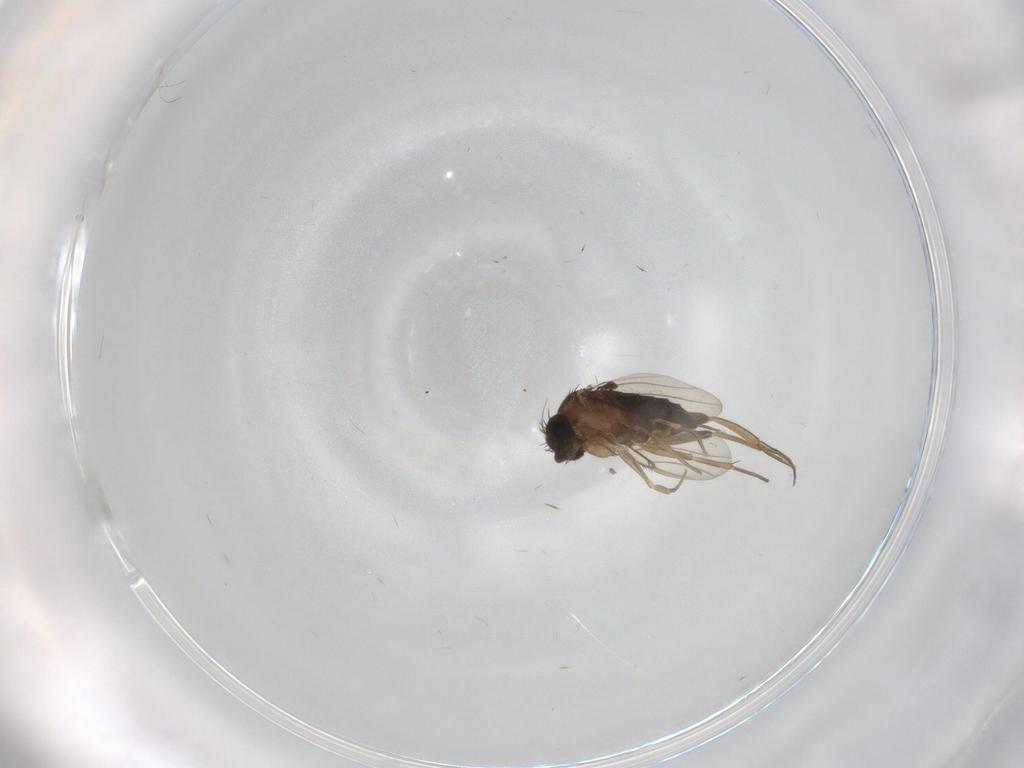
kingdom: Animalia
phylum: Arthropoda
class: Insecta
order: Diptera
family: Phoridae
